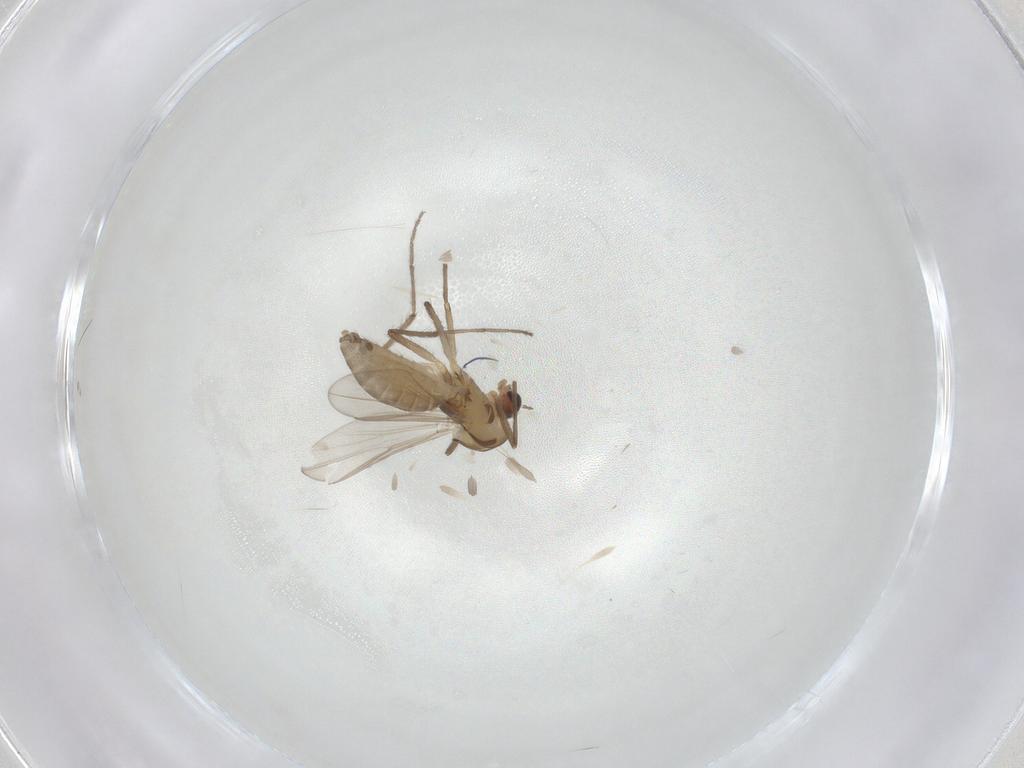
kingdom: Animalia
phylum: Arthropoda
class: Insecta
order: Diptera
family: Chironomidae
